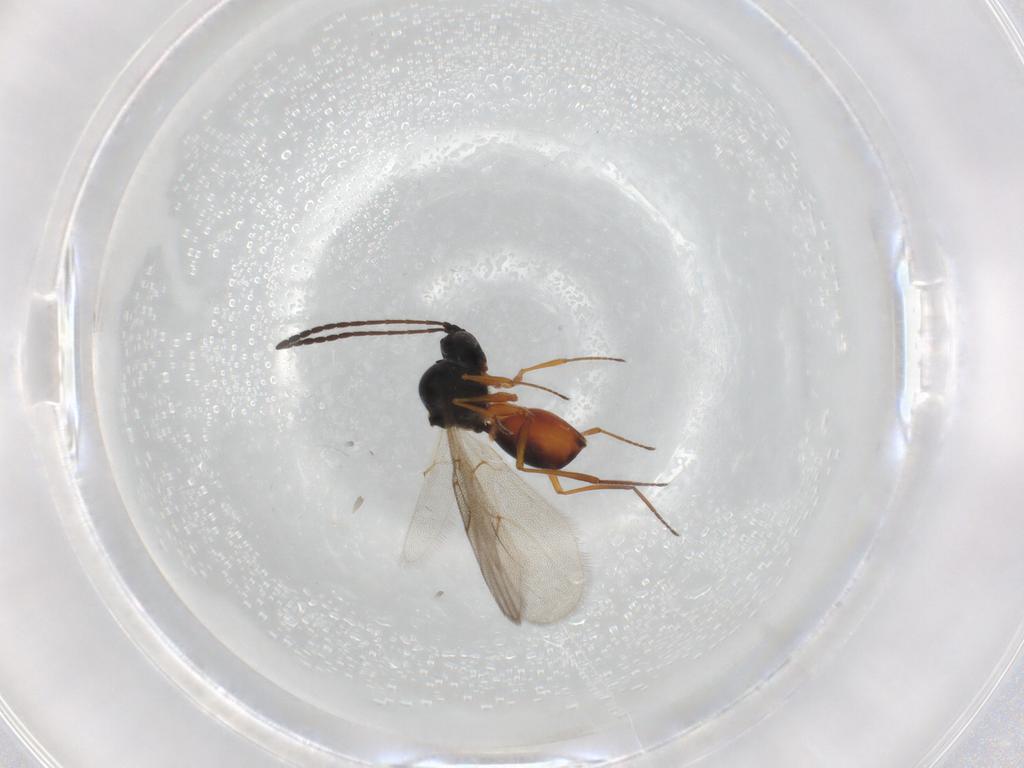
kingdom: Animalia
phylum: Arthropoda
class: Insecta
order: Hymenoptera
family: Figitidae
